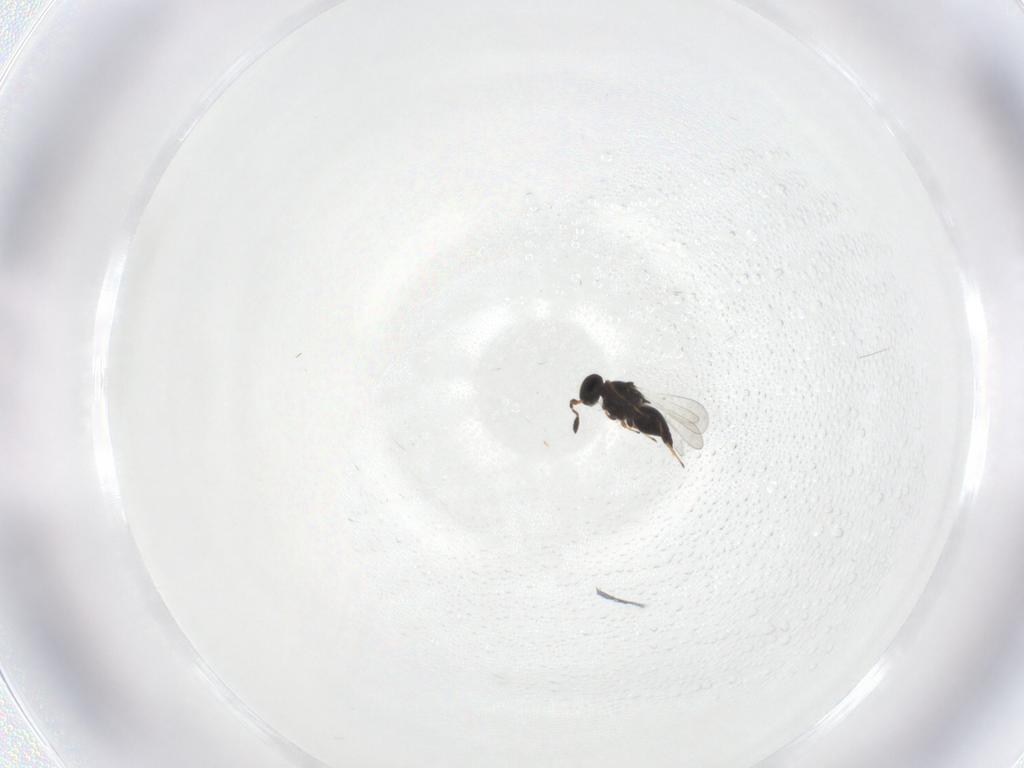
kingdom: Animalia
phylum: Arthropoda
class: Insecta
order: Hymenoptera
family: Platygastridae
